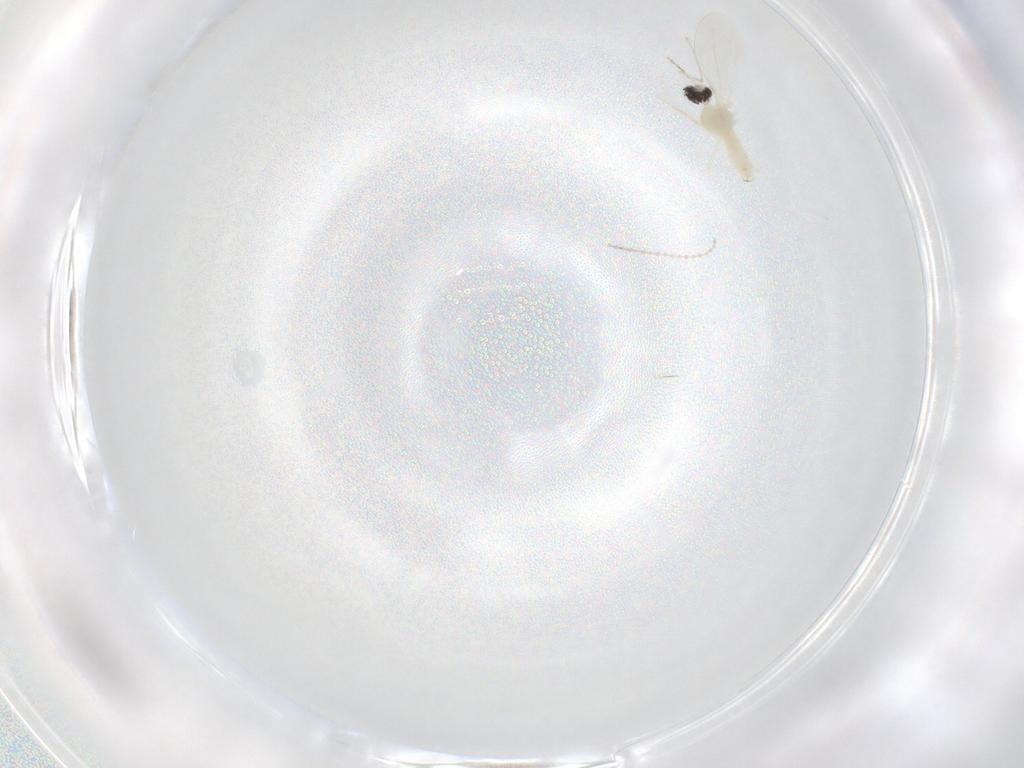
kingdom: Animalia
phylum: Arthropoda
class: Insecta
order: Diptera
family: Cecidomyiidae
